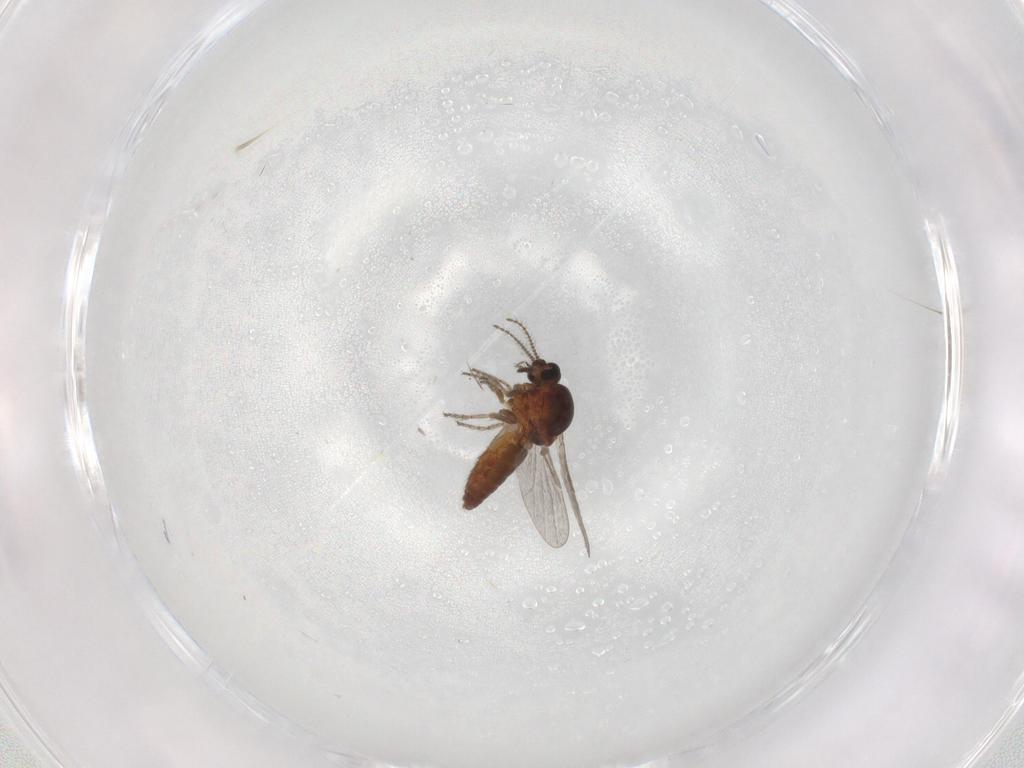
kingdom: Animalia
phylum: Arthropoda
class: Insecta
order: Diptera
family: Ceratopogonidae
